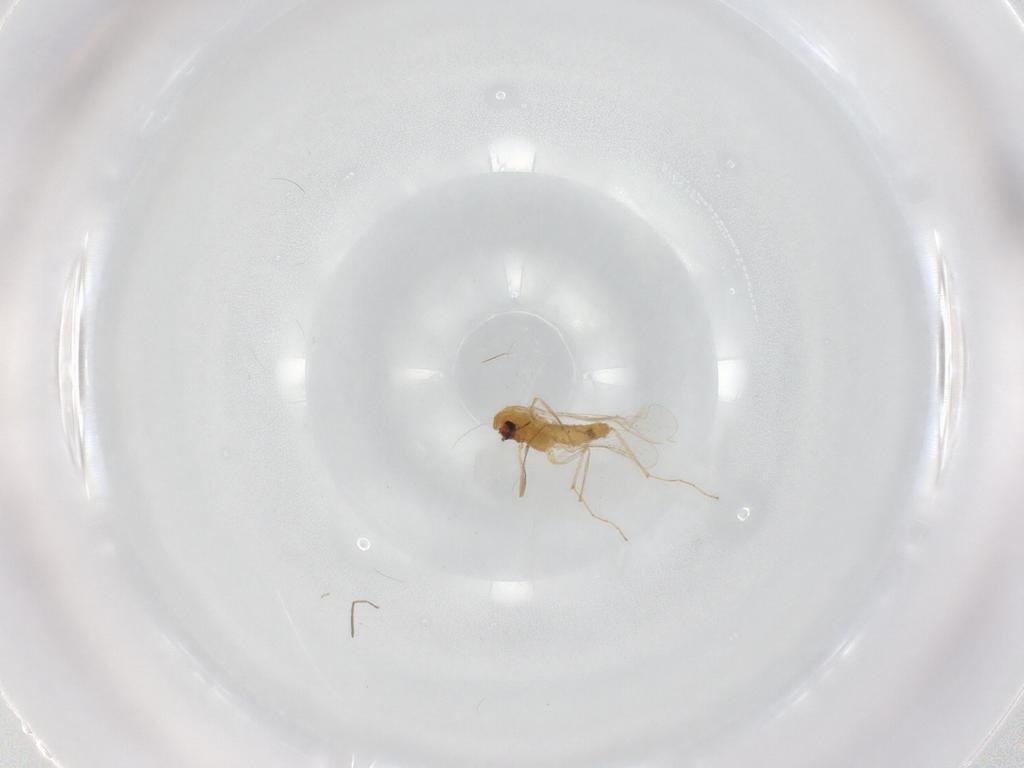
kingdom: Animalia
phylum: Arthropoda
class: Insecta
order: Diptera
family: Chironomidae
